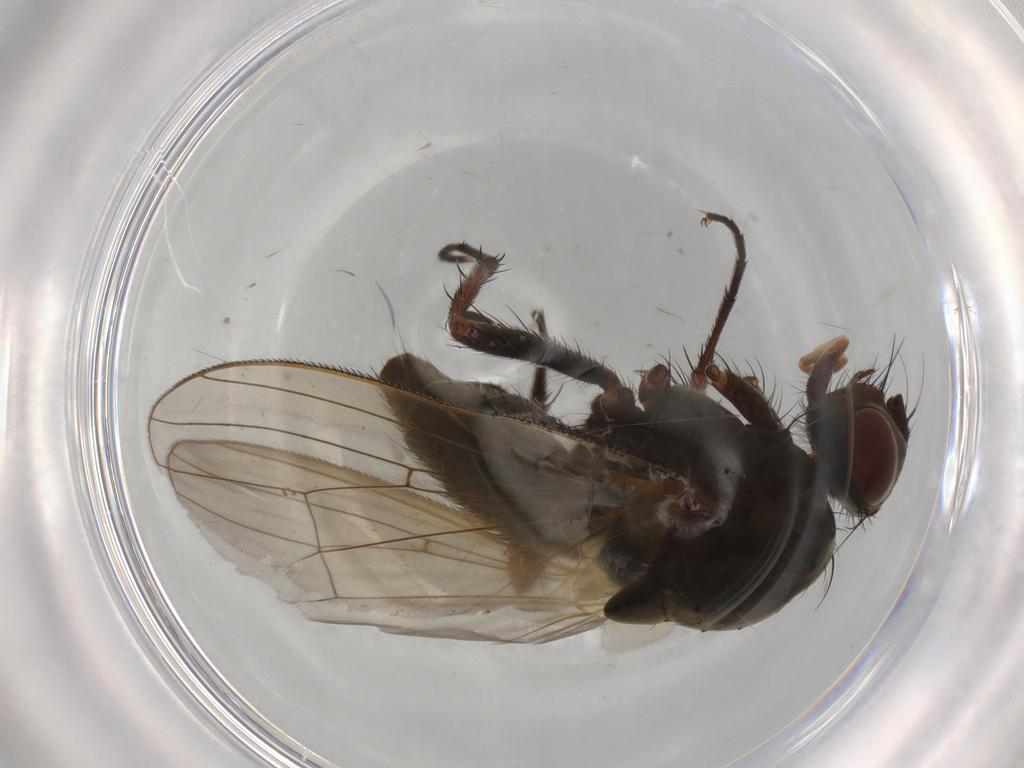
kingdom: Animalia
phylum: Arthropoda
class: Insecta
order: Diptera
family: Anthomyiidae
